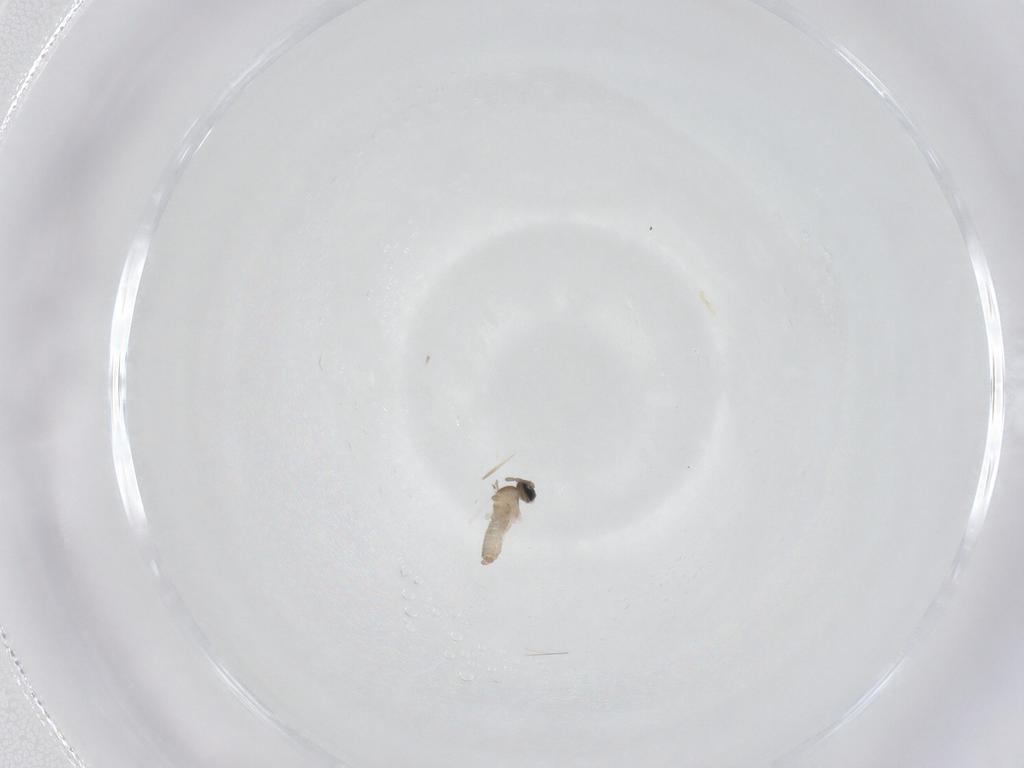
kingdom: Animalia
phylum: Arthropoda
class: Insecta
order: Diptera
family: Cecidomyiidae
